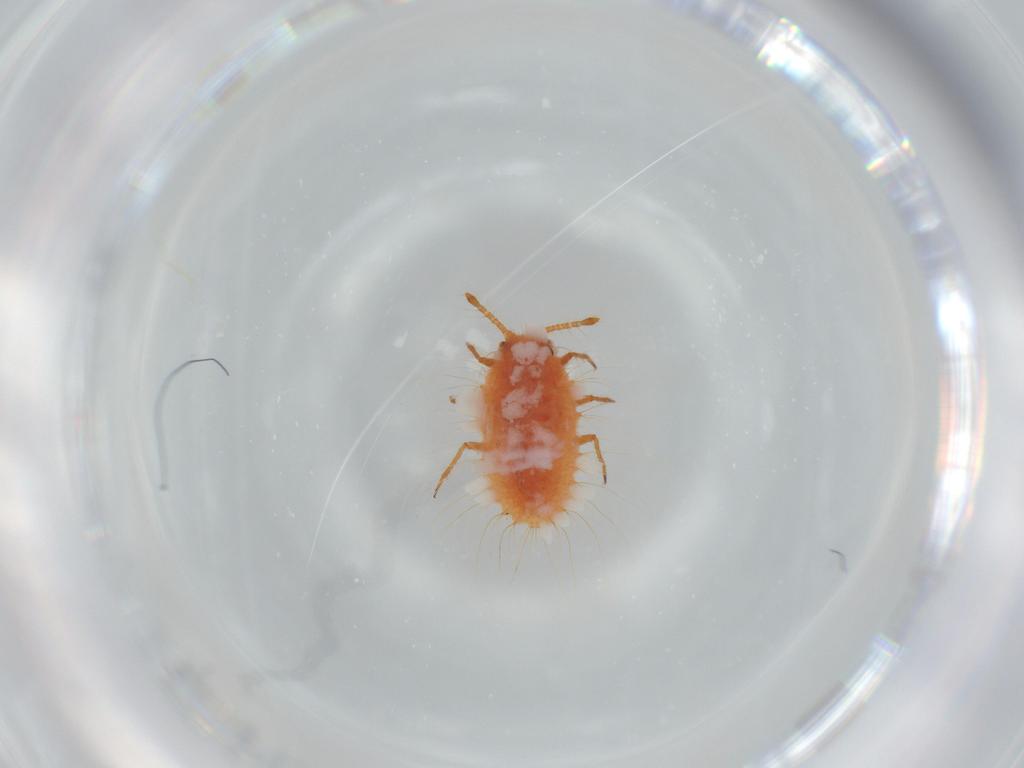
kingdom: Animalia
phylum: Arthropoda
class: Insecta
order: Hemiptera
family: Coccoidea_incertae_sedis
